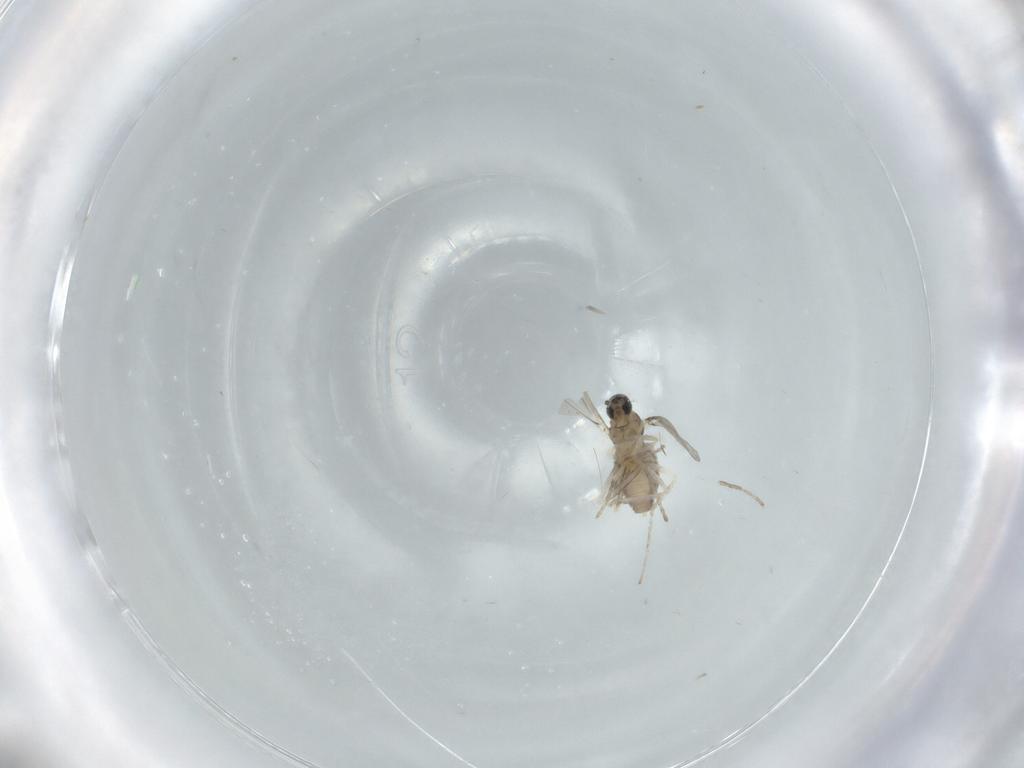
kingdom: Animalia
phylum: Arthropoda
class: Insecta
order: Diptera
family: Cecidomyiidae
